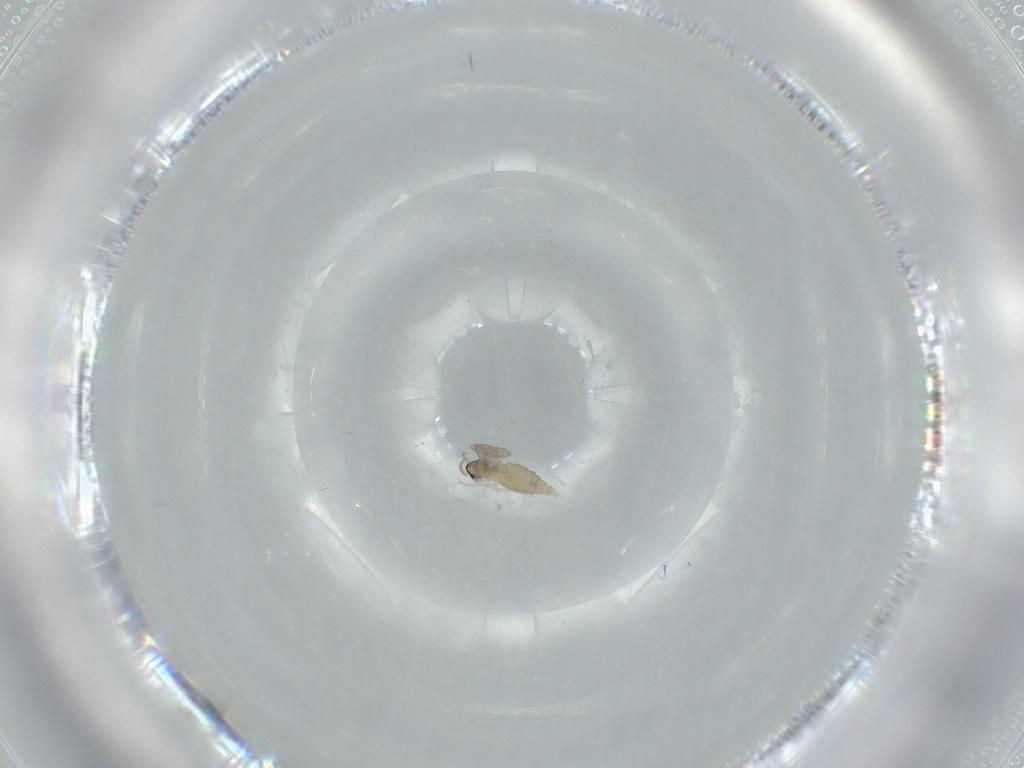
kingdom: Animalia
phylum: Arthropoda
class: Insecta
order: Diptera
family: Cecidomyiidae
